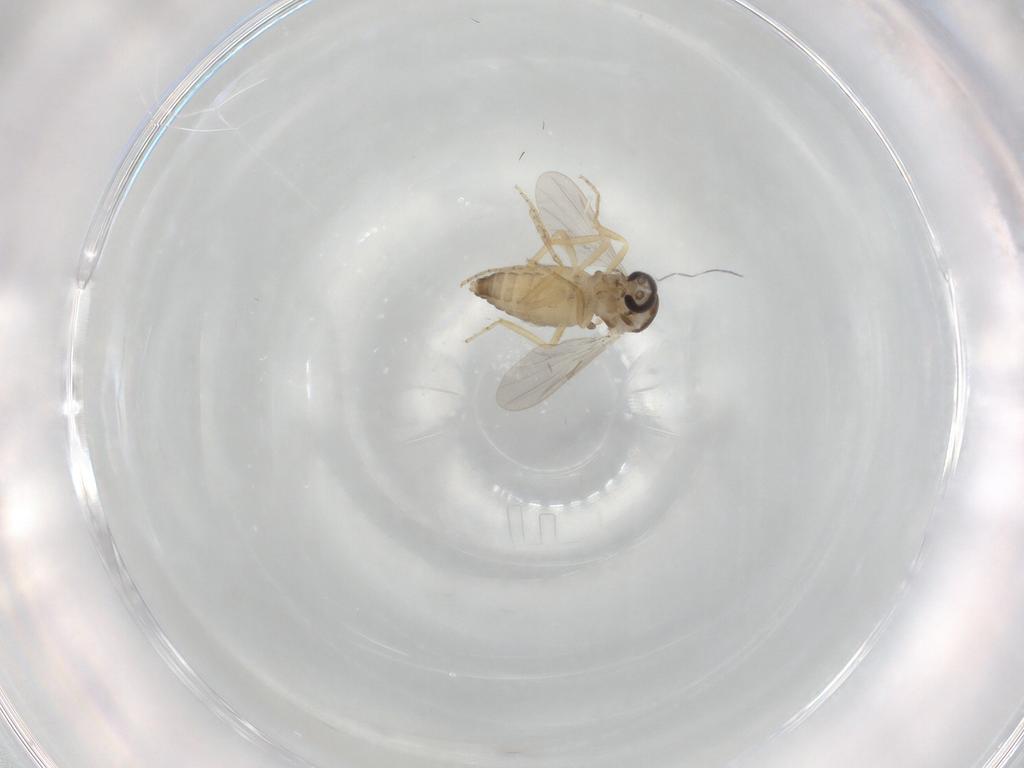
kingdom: Animalia
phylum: Arthropoda
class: Insecta
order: Diptera
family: Ceratopogonidae
